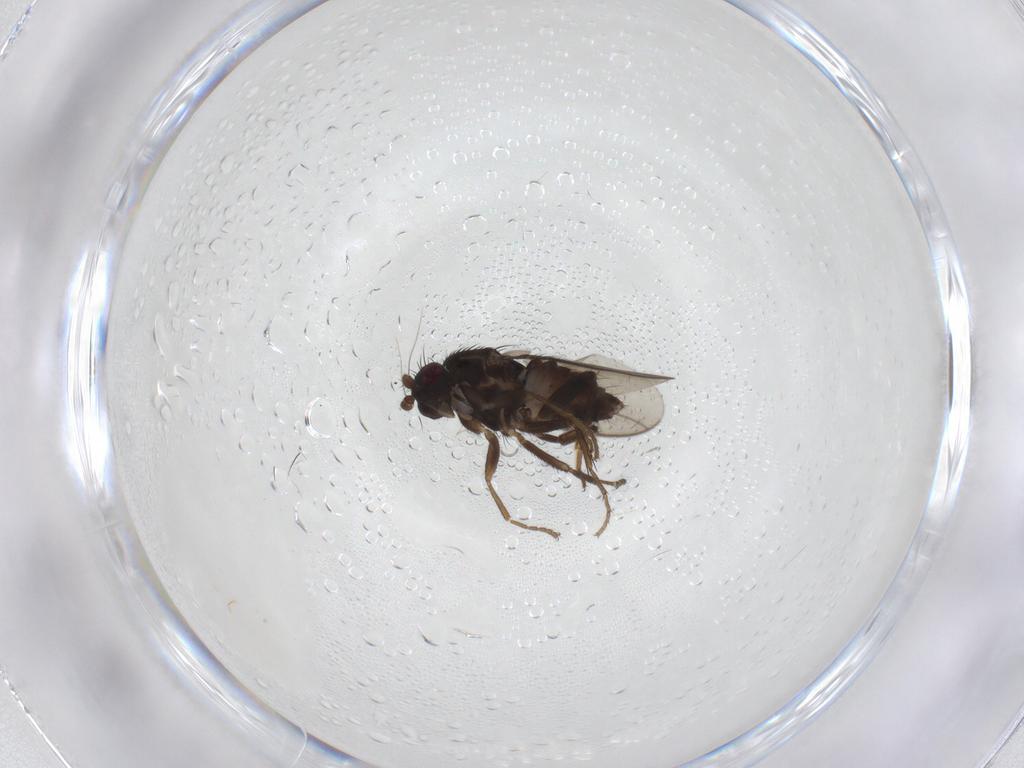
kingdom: Animalia
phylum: Arthropoda
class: Insecta
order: Diptera
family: Sphaeroceridae
